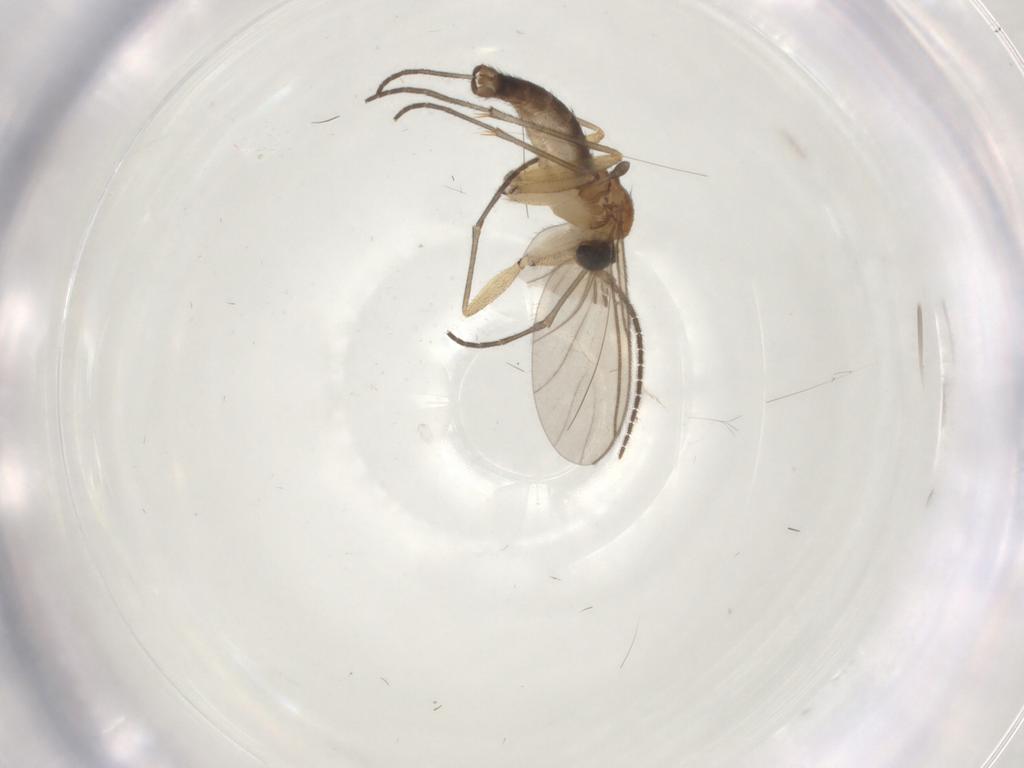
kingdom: Animalia
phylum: Arthropoda
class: Insecta
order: Diptera
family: Sciaridae
